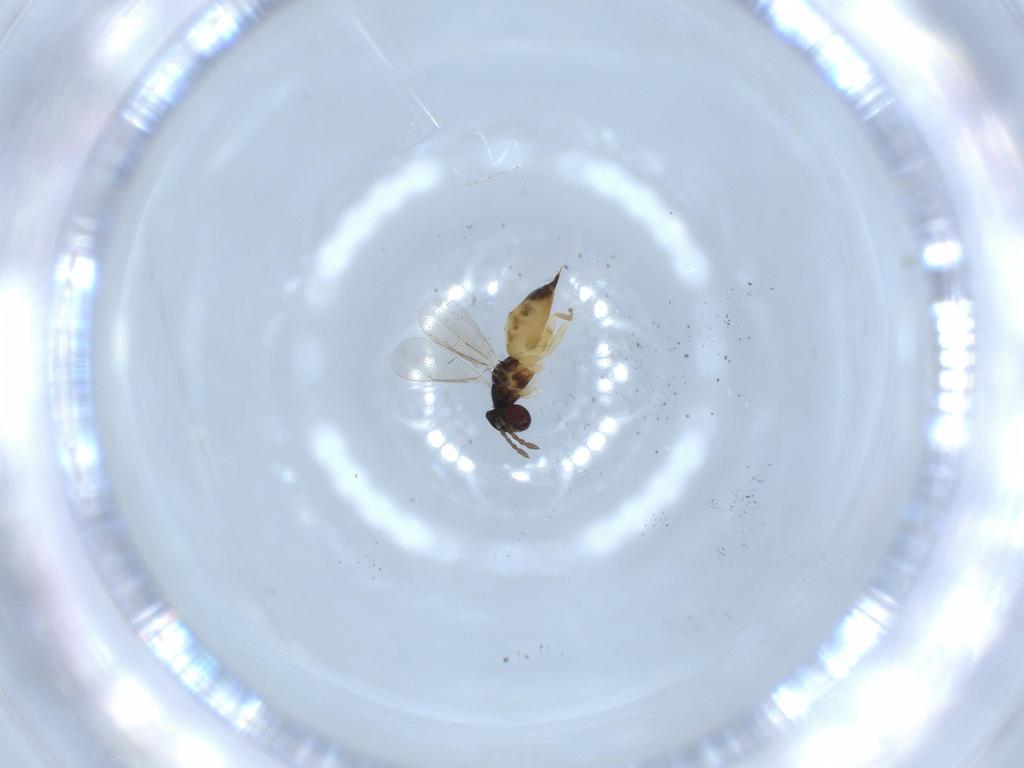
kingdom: Animalia
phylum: Arthropoda
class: Insecta
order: Hymenoptera
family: Eulophidae
